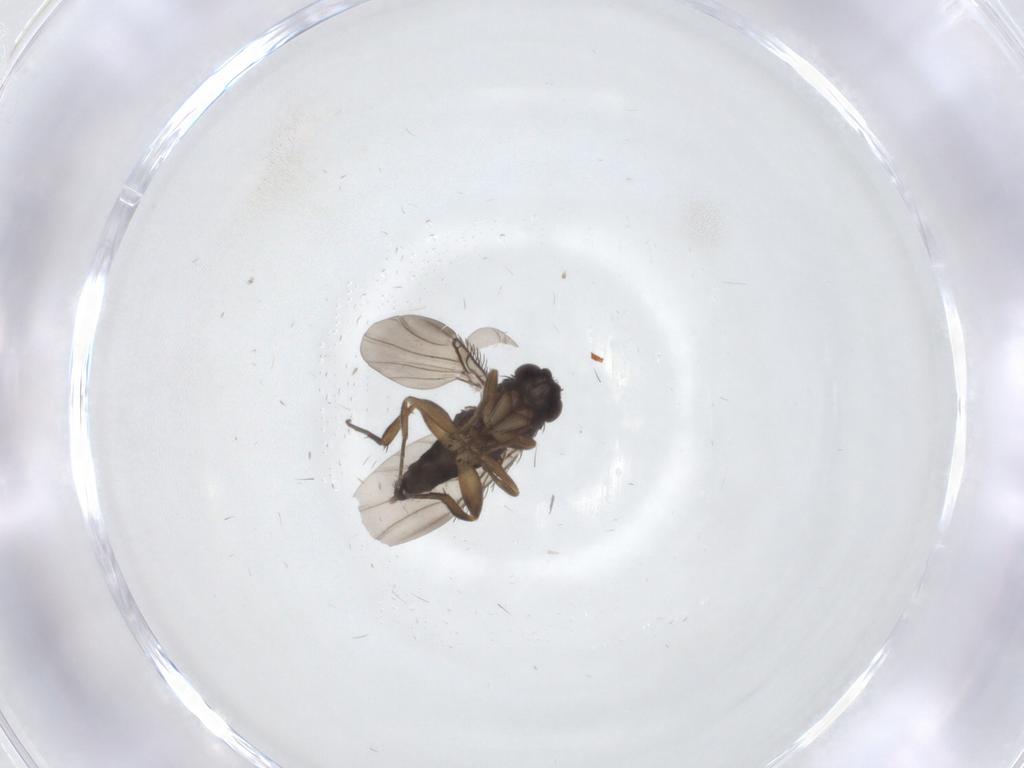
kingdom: Animalia
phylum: Arthropoda
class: Insecta
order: Diptera
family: Phoridae
